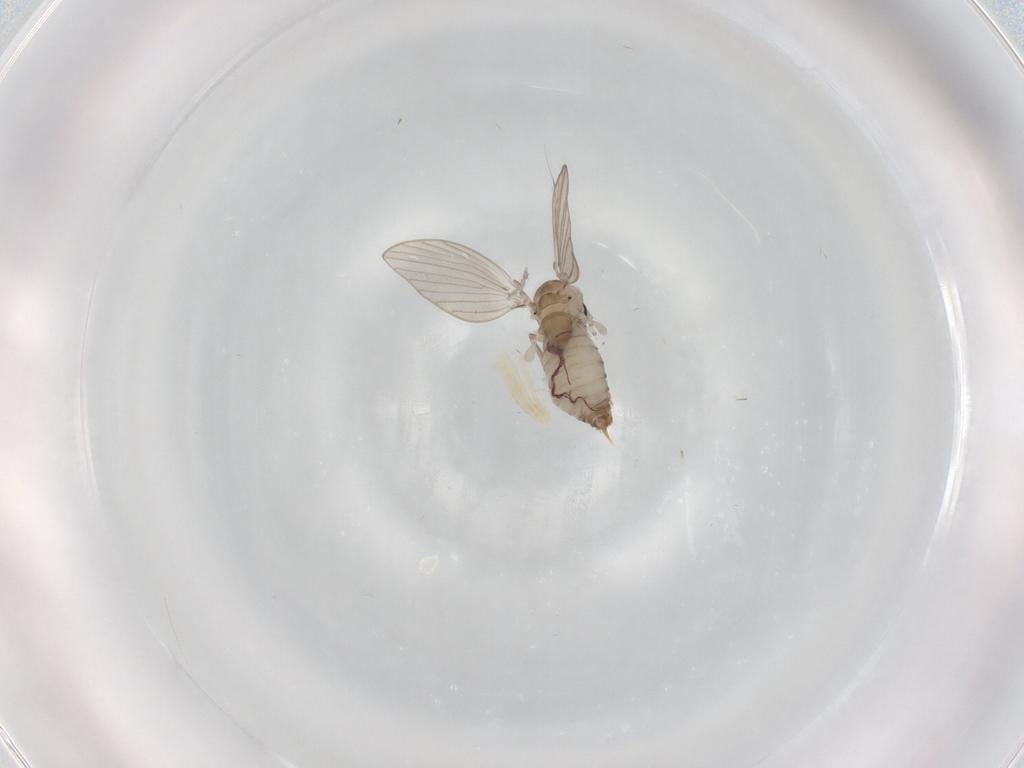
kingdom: Animalia
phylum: Arthropoda
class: Insecta
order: Diptera
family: Psychodidae
